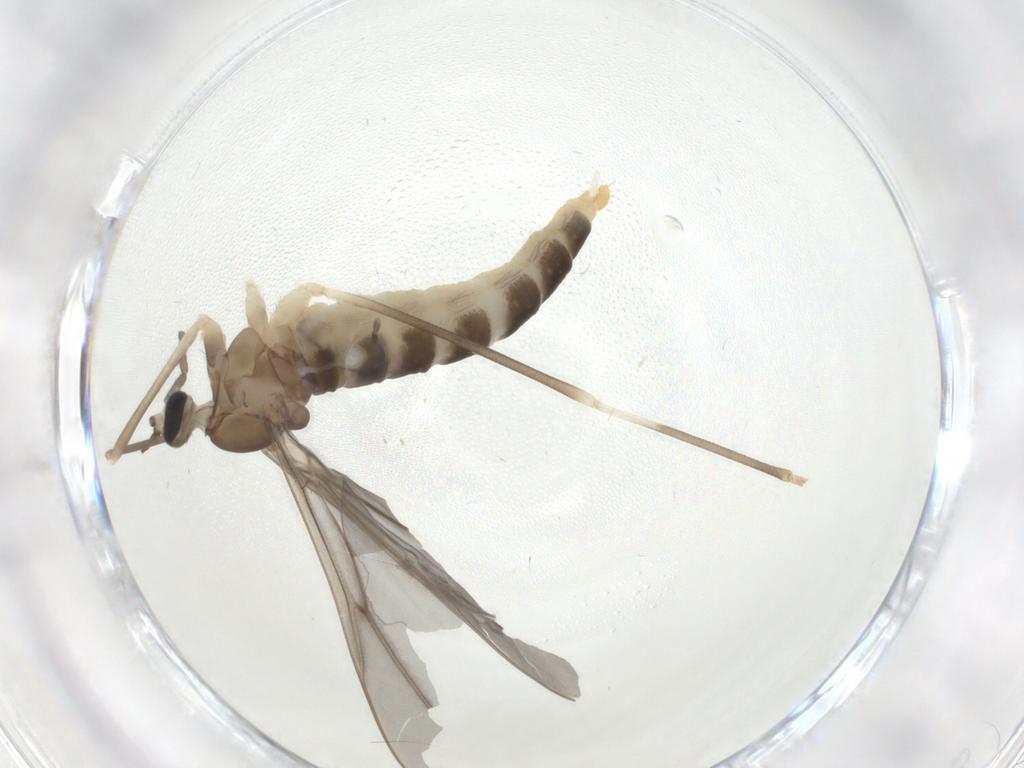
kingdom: Animalia
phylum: Arthropoda
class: Insecta
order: Diptera
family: Cecidomyiidae
